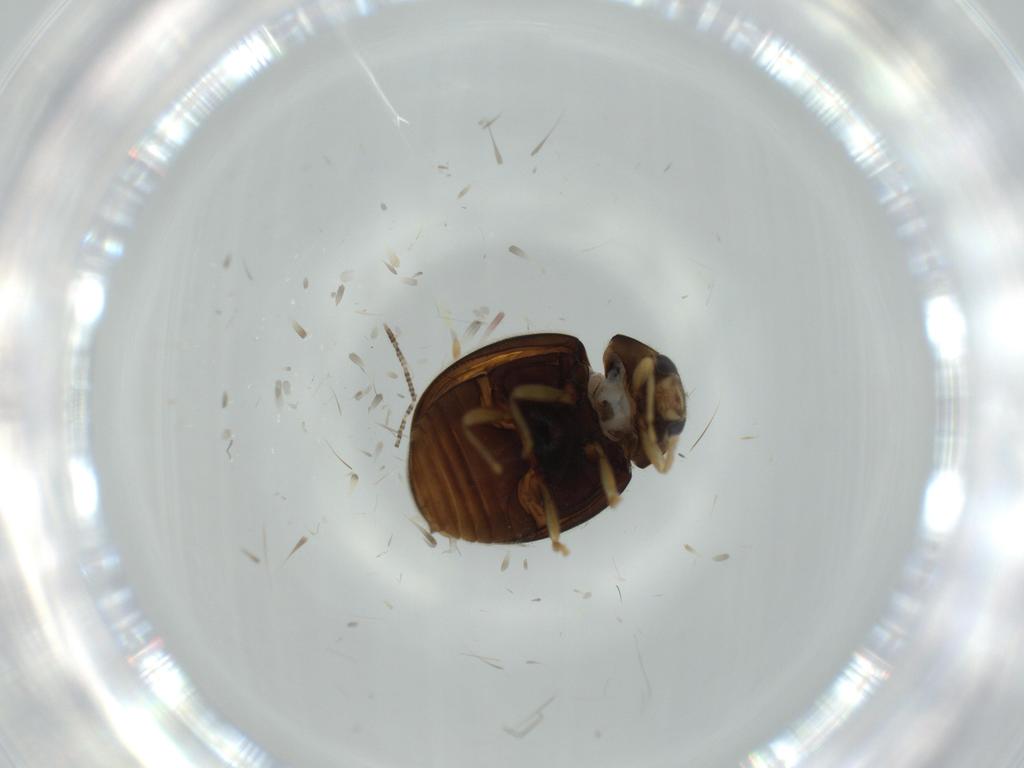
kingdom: Animalia
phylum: Arthropoda
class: Insecta
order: Coleoptera
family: Coccinellidae
